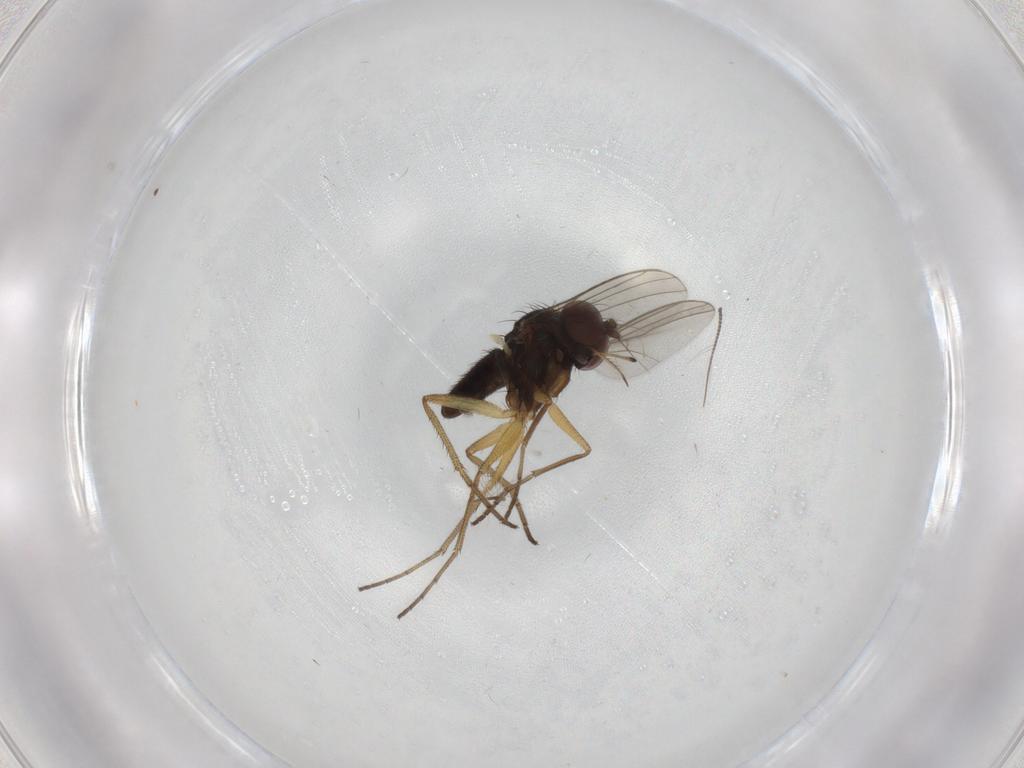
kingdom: Animalia
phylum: Arthropoda
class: Insecta
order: Diptera
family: Dolichopodidae
